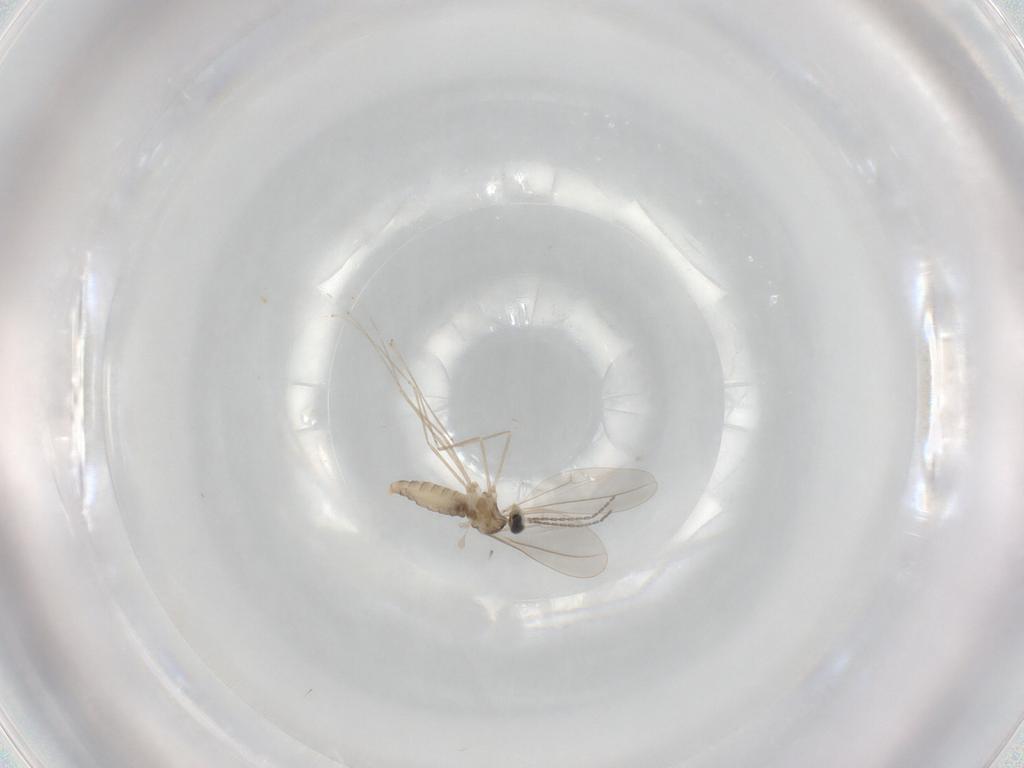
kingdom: Animalia
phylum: Arthropoda
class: Insecta
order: Diptera
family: Cecidomyiidae
